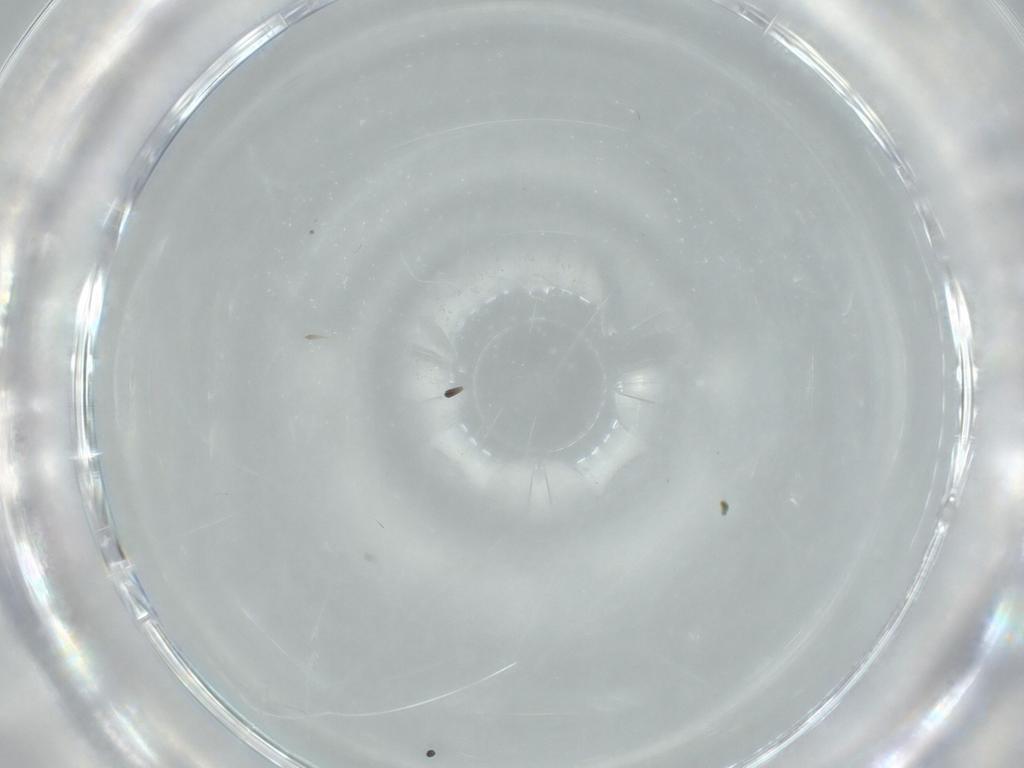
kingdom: Animalia
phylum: Arthropoda
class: Insecta
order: Diptera
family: Sciaridae
